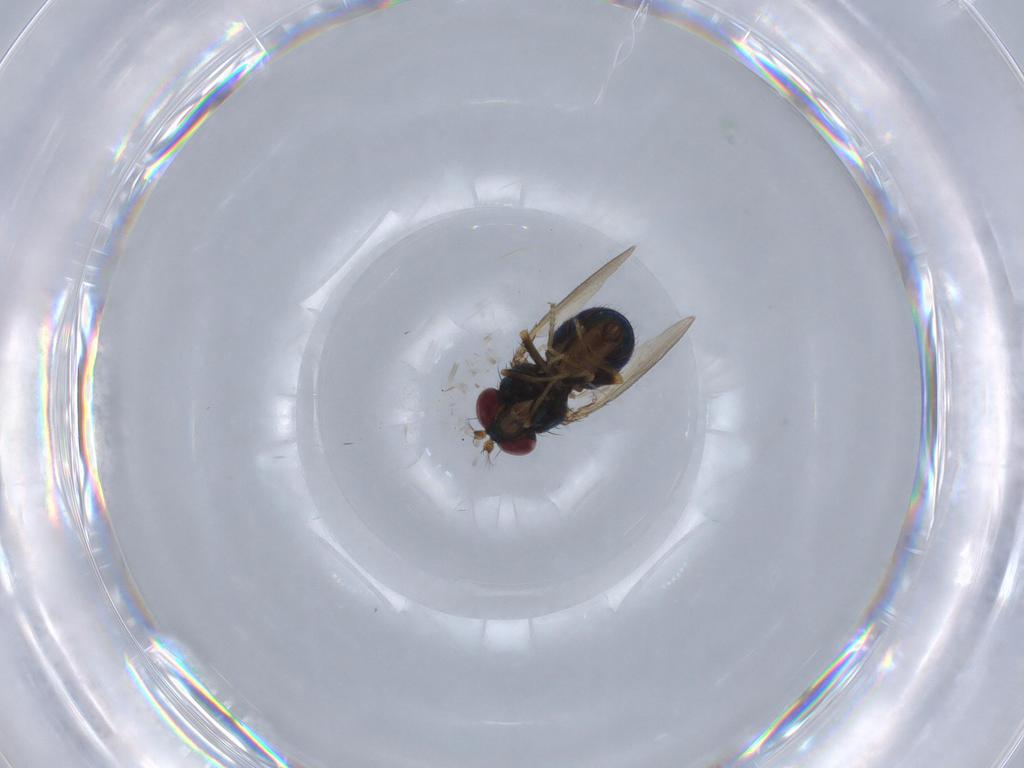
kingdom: Animalia
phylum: Arthropoda
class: Insecta
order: Diptera
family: Ephydridae
